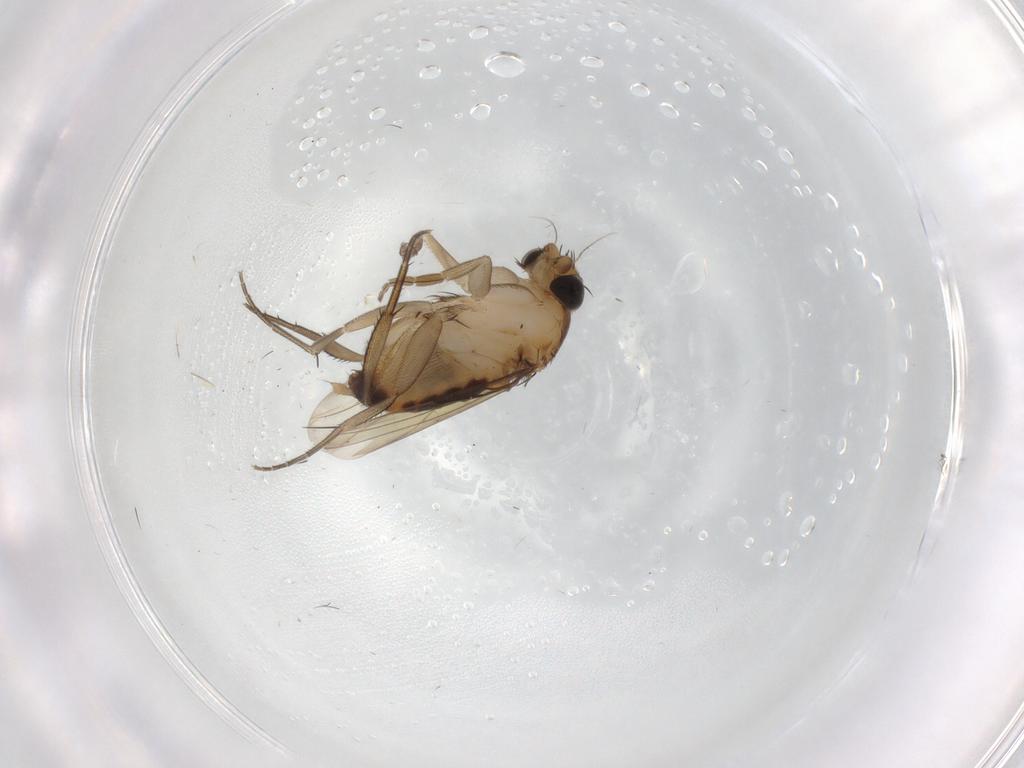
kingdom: Animalia
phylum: Arthropoda
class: Insecta
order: Diptera
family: Phoridae
